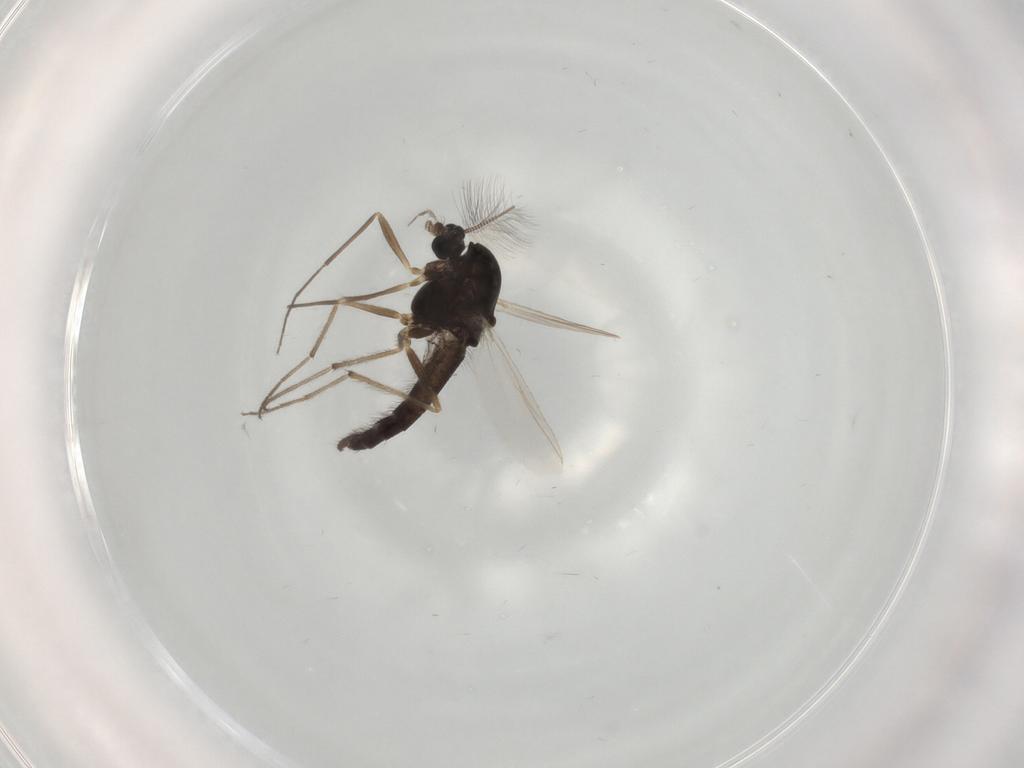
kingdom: Animalia
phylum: Arthropoda
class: Insecta
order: Diptera
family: Chironomidae
